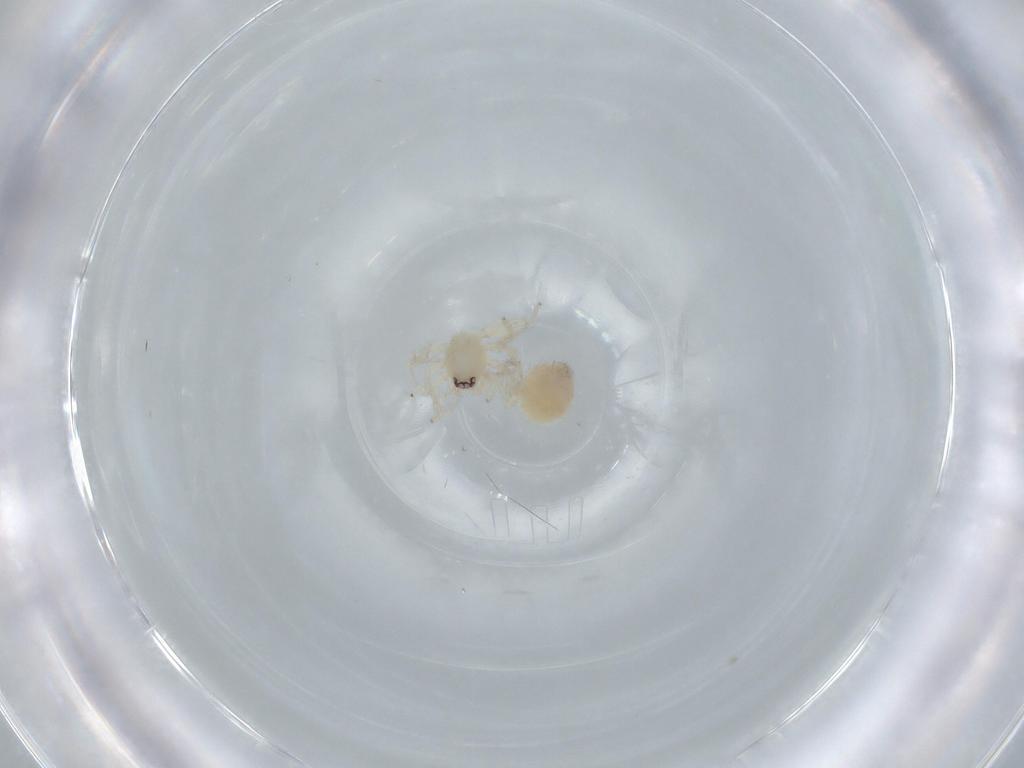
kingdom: Animalia
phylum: Arthropoda
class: Arachnida
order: Araneae
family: Oonopidae
